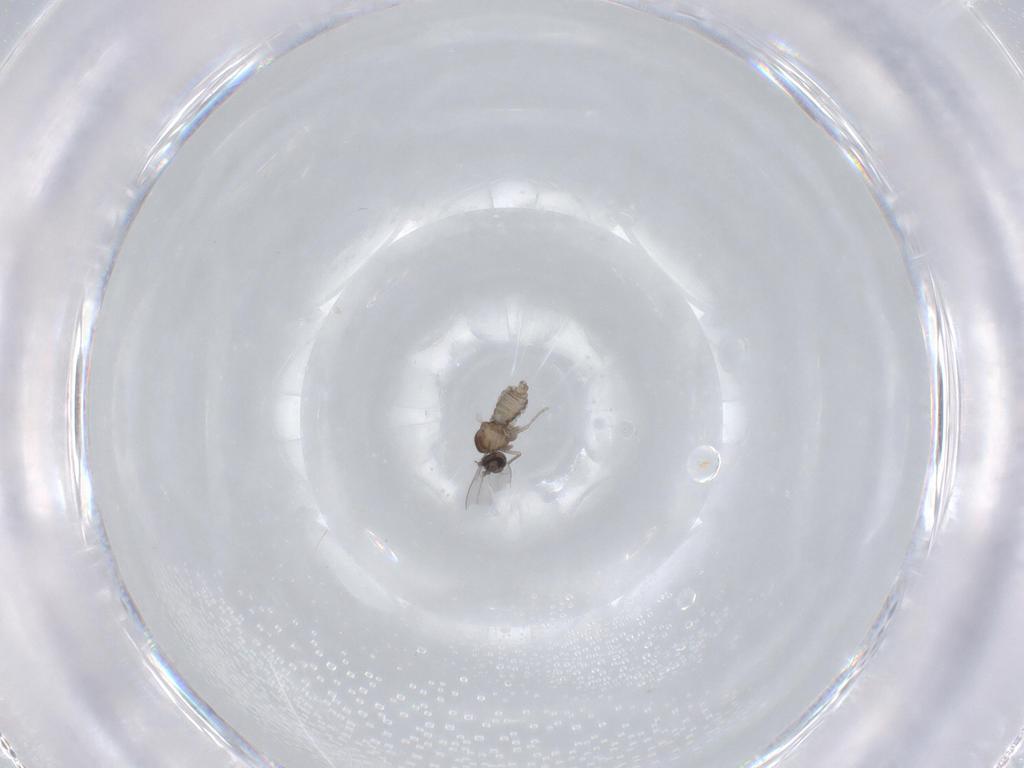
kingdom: Animalia
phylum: Arthropoda
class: Insecta
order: Diptera
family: Cecidomyiidae
